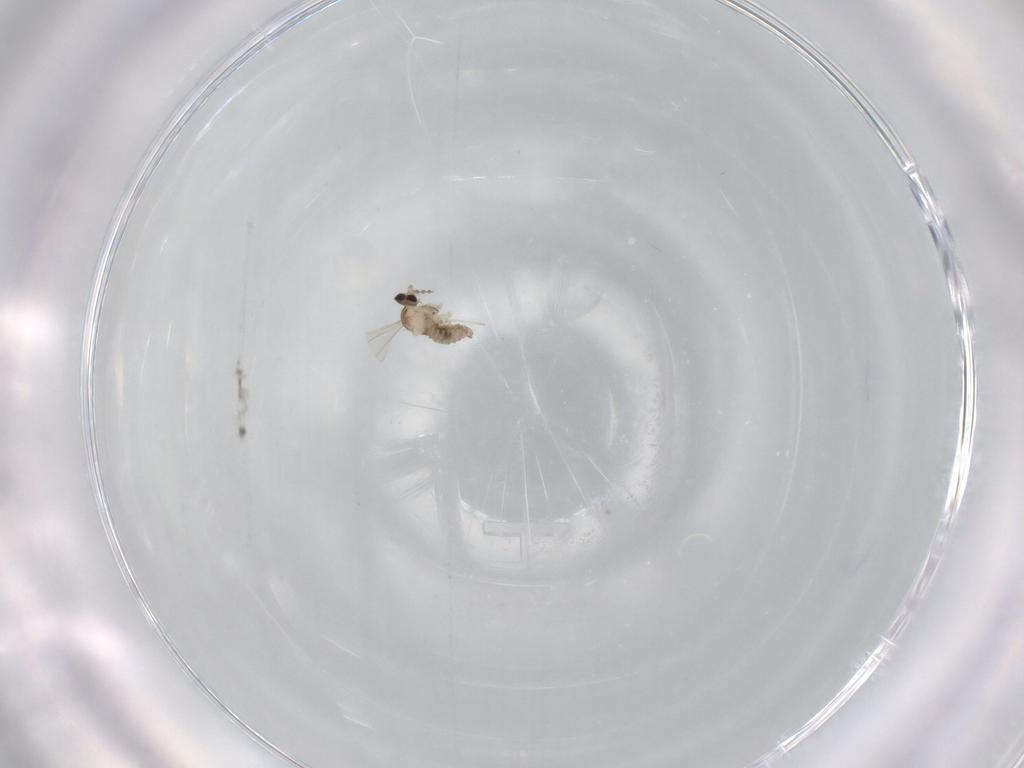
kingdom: Animalia
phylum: Arthropoda
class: Insecta
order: Diptera
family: Cecidomyiidae
